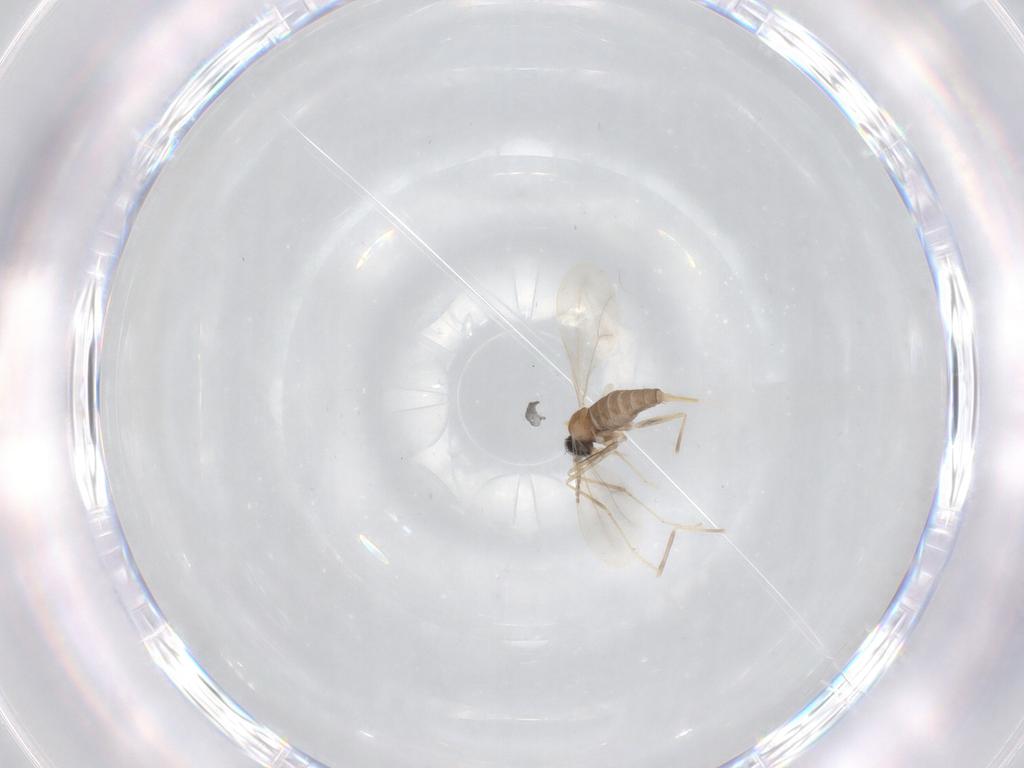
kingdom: Animalia
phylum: Arthropoda
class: Insecta
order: Diptera
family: Cecidomyiidae
